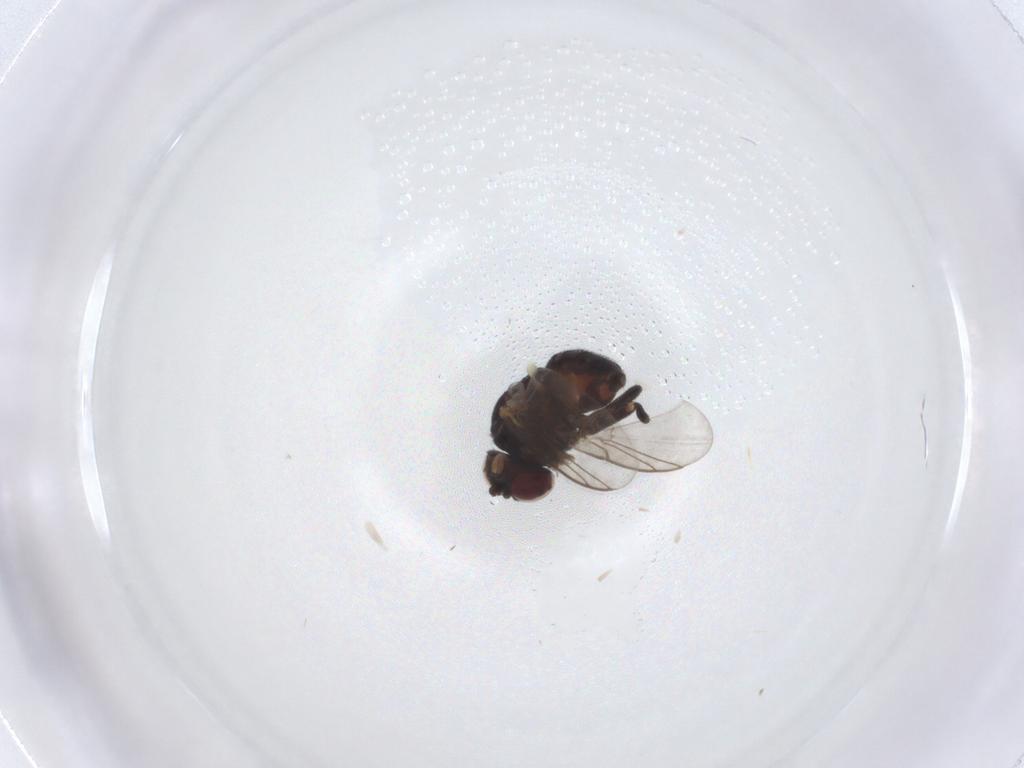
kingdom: Animalia
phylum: Arthropoda
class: Insecta
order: Diptera
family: Agromyzidae
